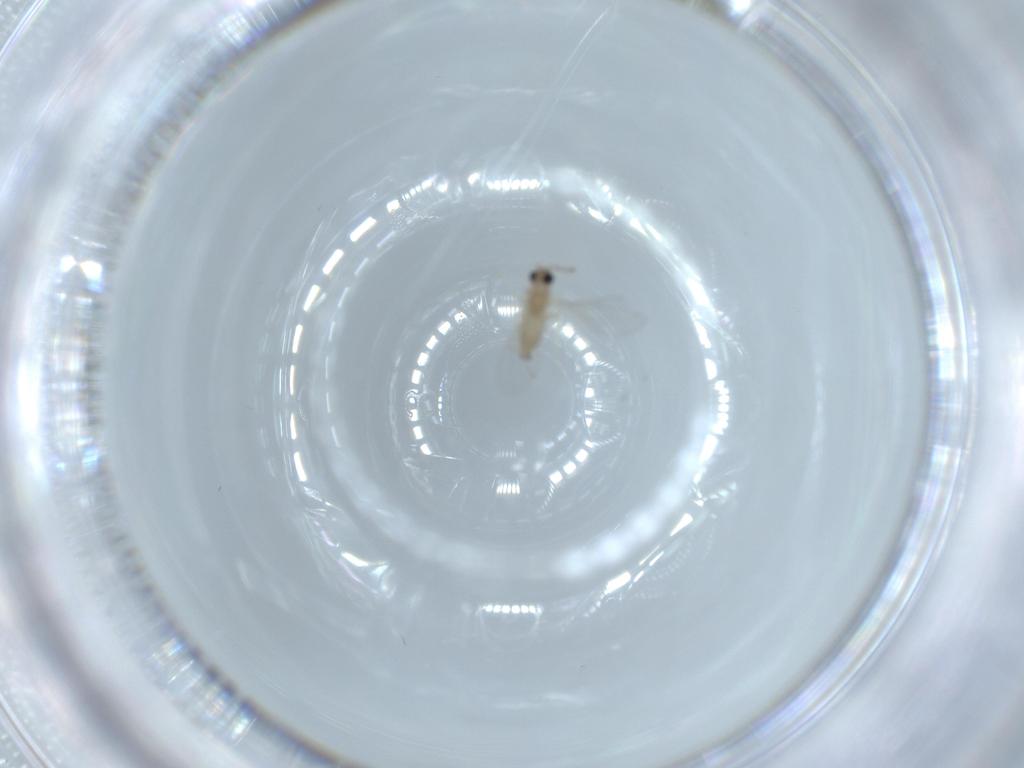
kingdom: Animalia
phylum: Arthropoda
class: Insecta
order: Diptera
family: Cecidomyiidae
